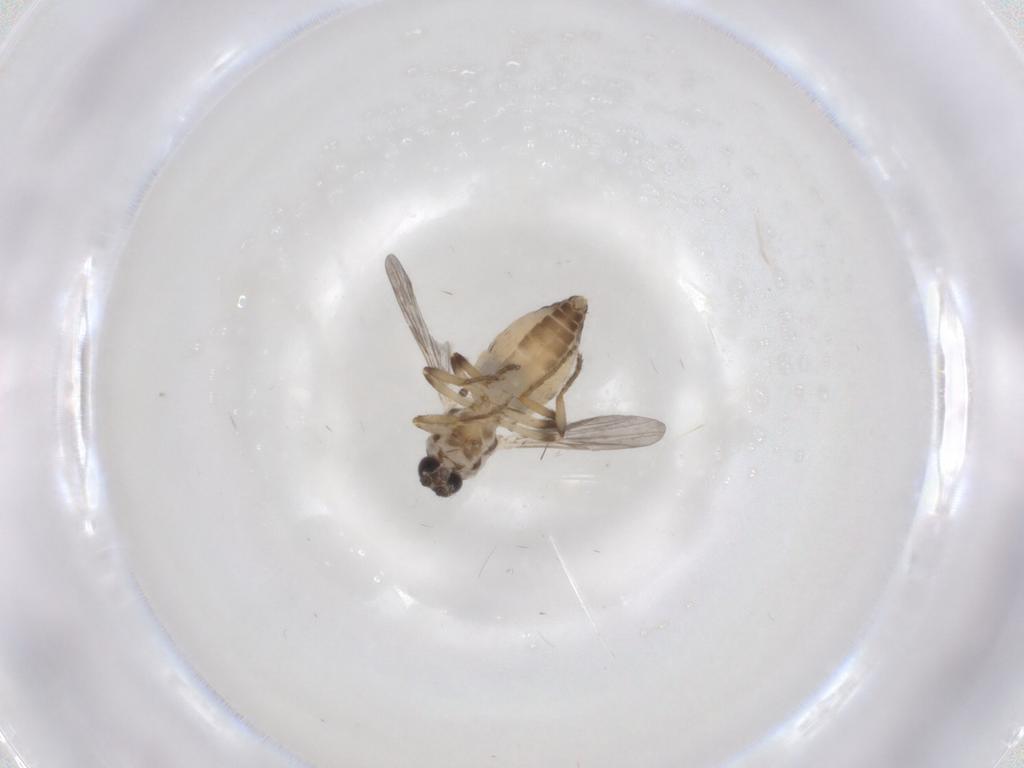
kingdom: Animalia
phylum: Arthropoda
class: Insecta
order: Diptera
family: Ceratopogonidae
